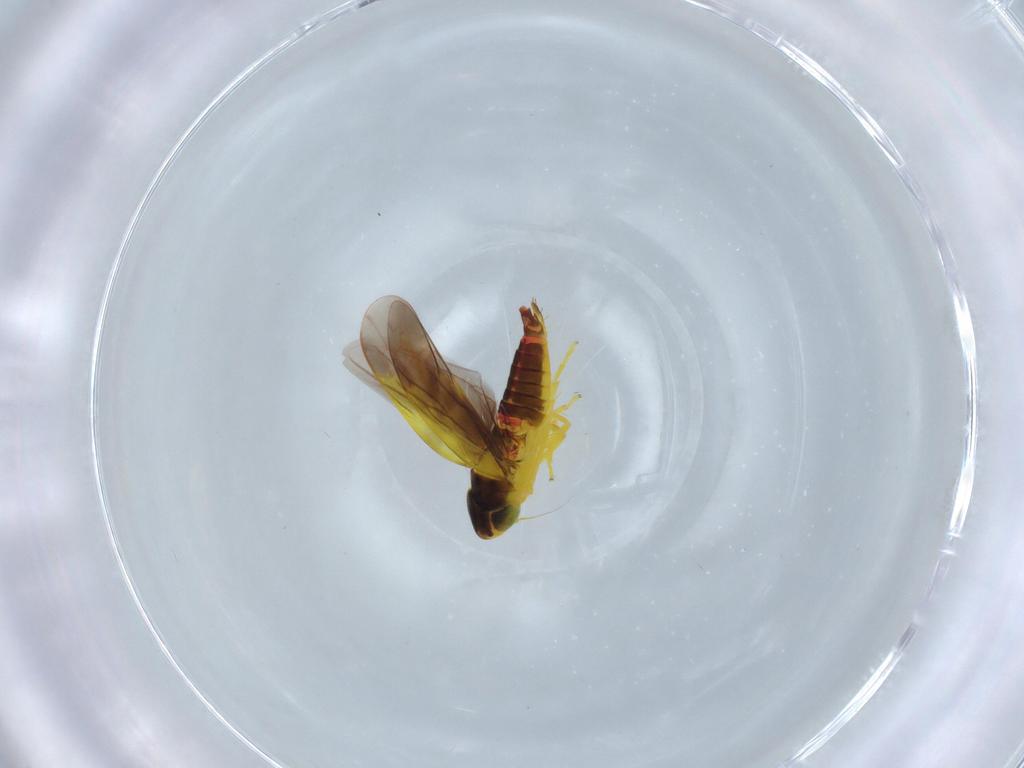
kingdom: Animalia
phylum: Arthropoda
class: Insecta
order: Hemiptera
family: Cicadellidae
